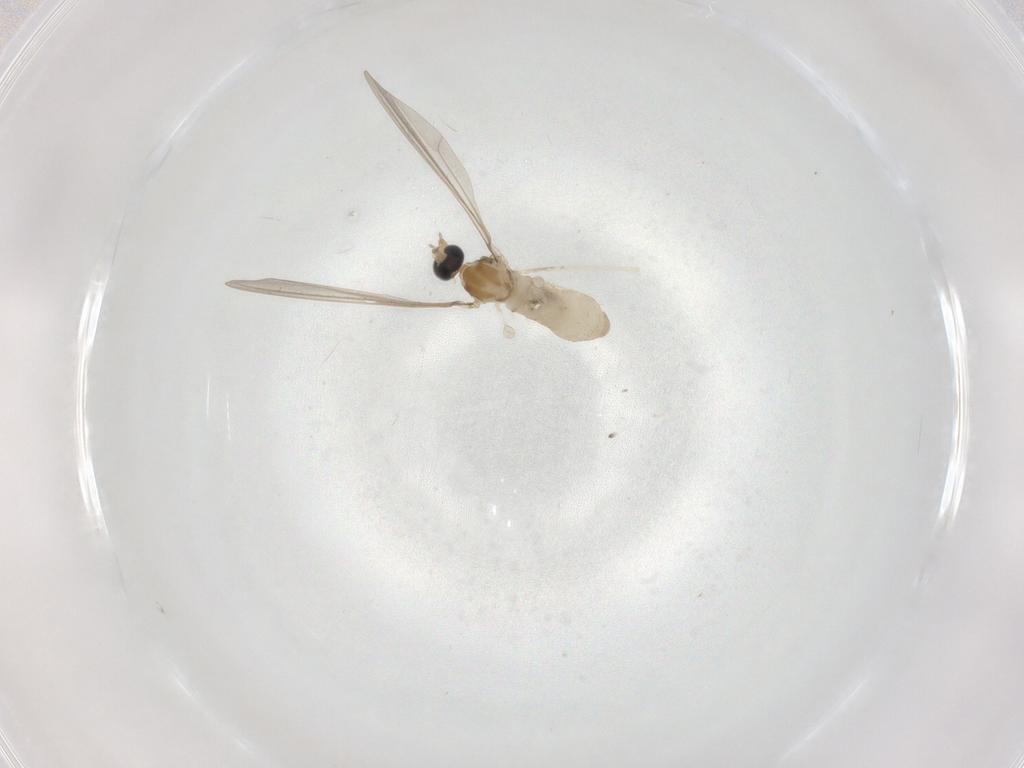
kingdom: Animalia
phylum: Arthropoda
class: Insecta
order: Diptera
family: Cecidomyiidae
